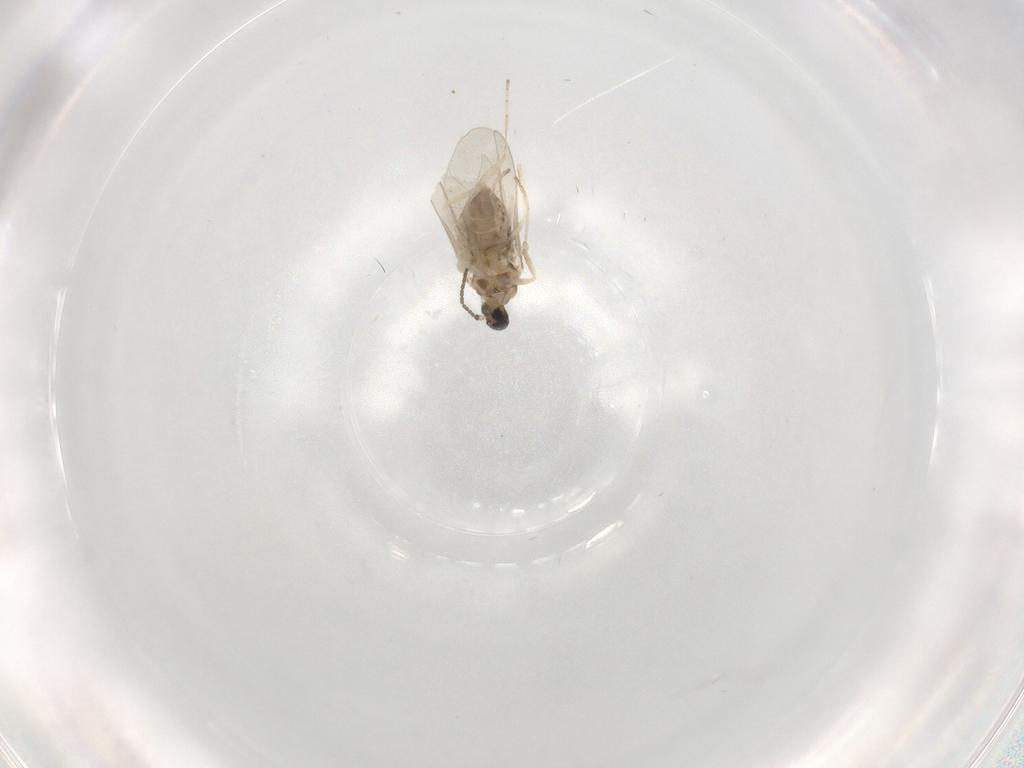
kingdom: Animalia
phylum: Arthropoda
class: Insecta
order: Diptera
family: Cecidomyiidae
